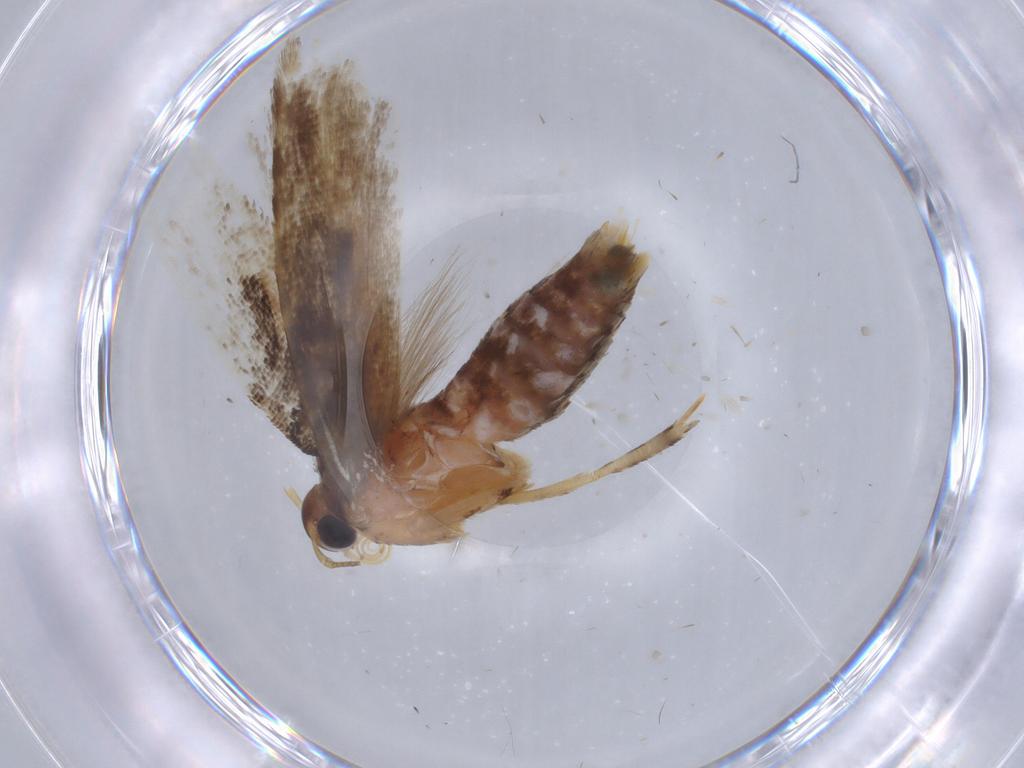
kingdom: Animalia
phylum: Arthropoda
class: Insecta
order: Lepidoptera
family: Gelechiidae
